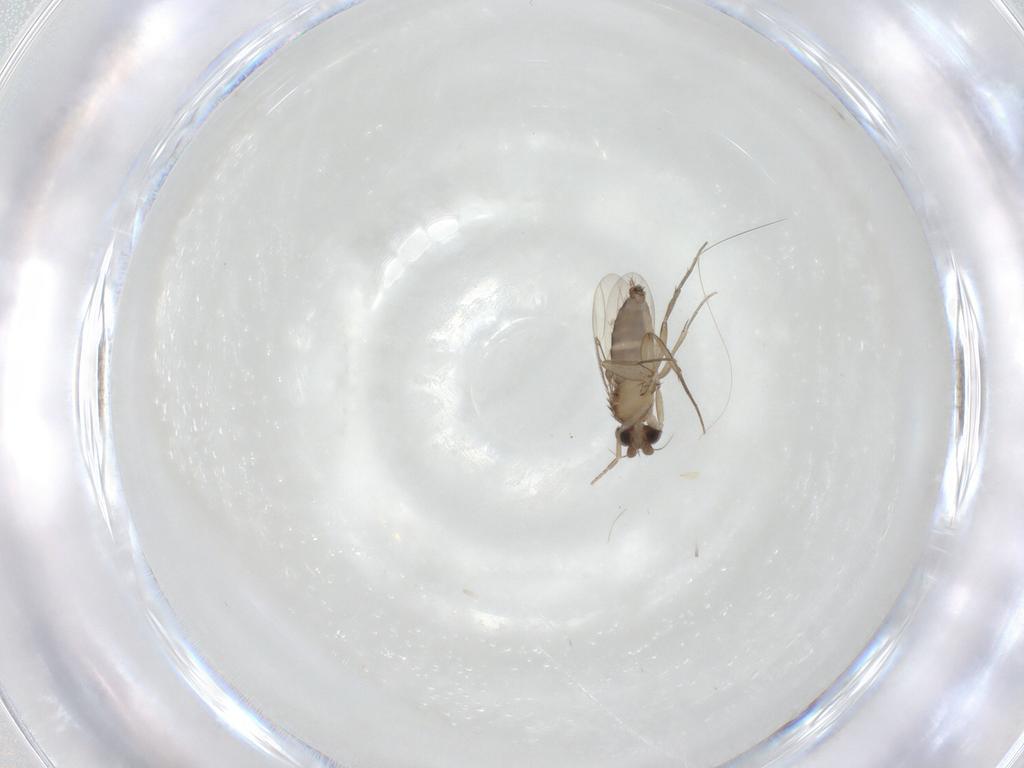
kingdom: Animalia
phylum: Arthropoda
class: Insecta
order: Diptera
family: Phoridae
